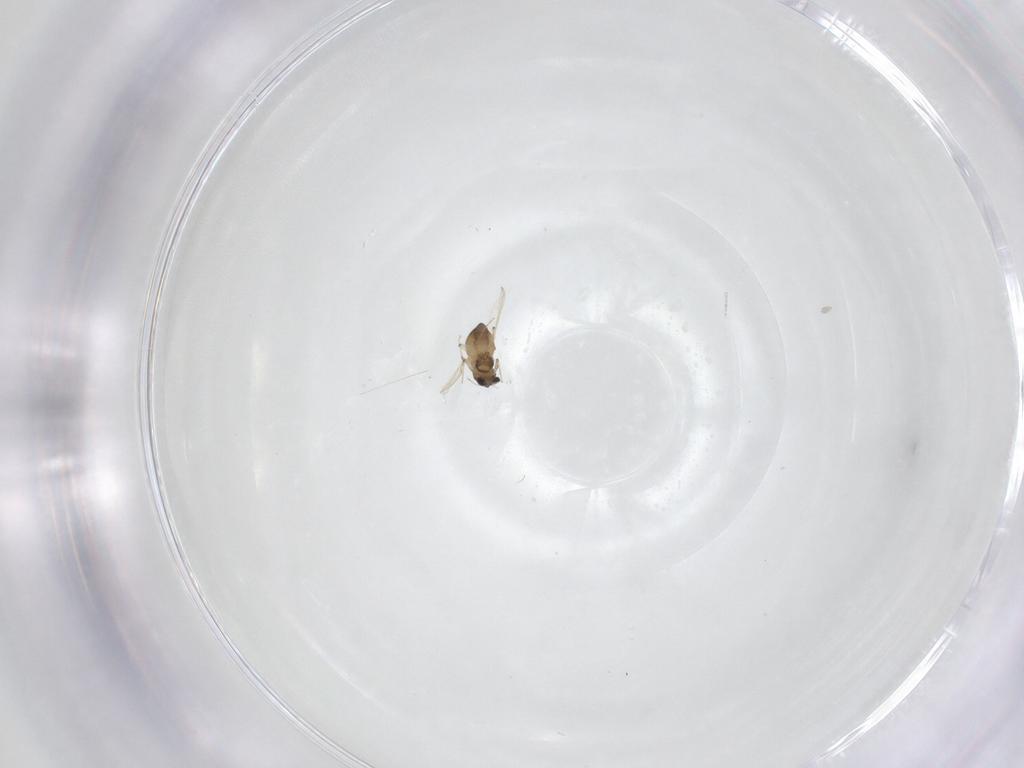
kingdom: Animalia
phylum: Arthropoda
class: Insecta
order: Diptera
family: Chironomidae
